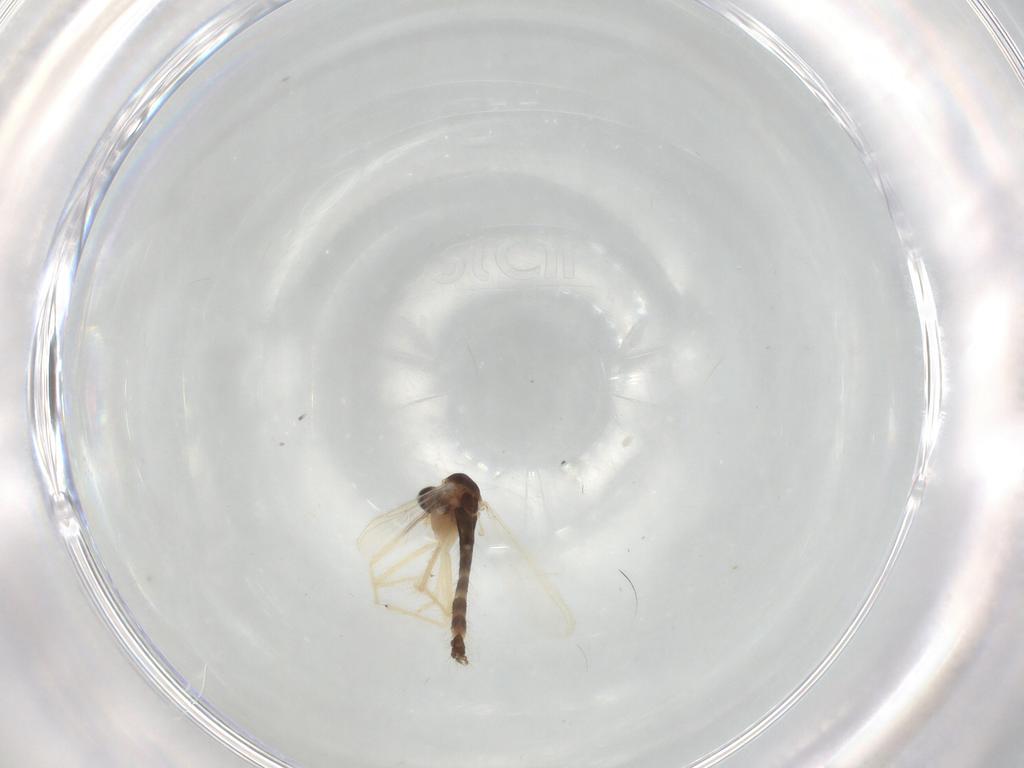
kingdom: Animalia
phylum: Arthropoda
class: Insecta
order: Diptera
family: Chironomidae
